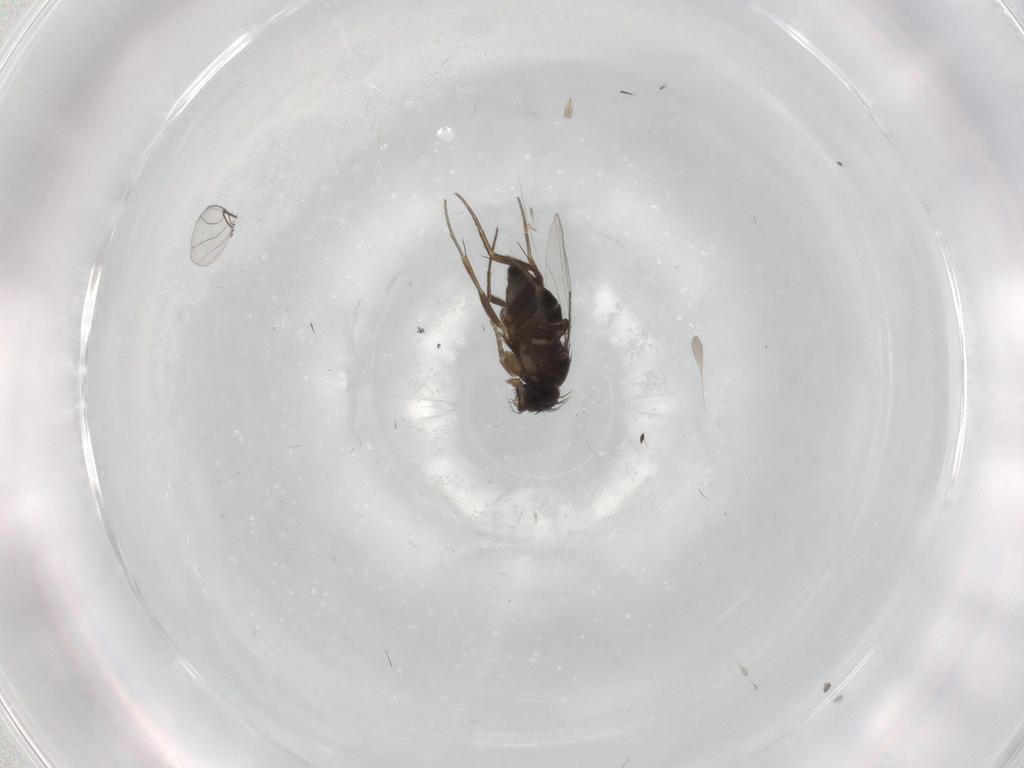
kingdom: Animalia
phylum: Arthropoda
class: Insecta
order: Diptera
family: Phoridae
